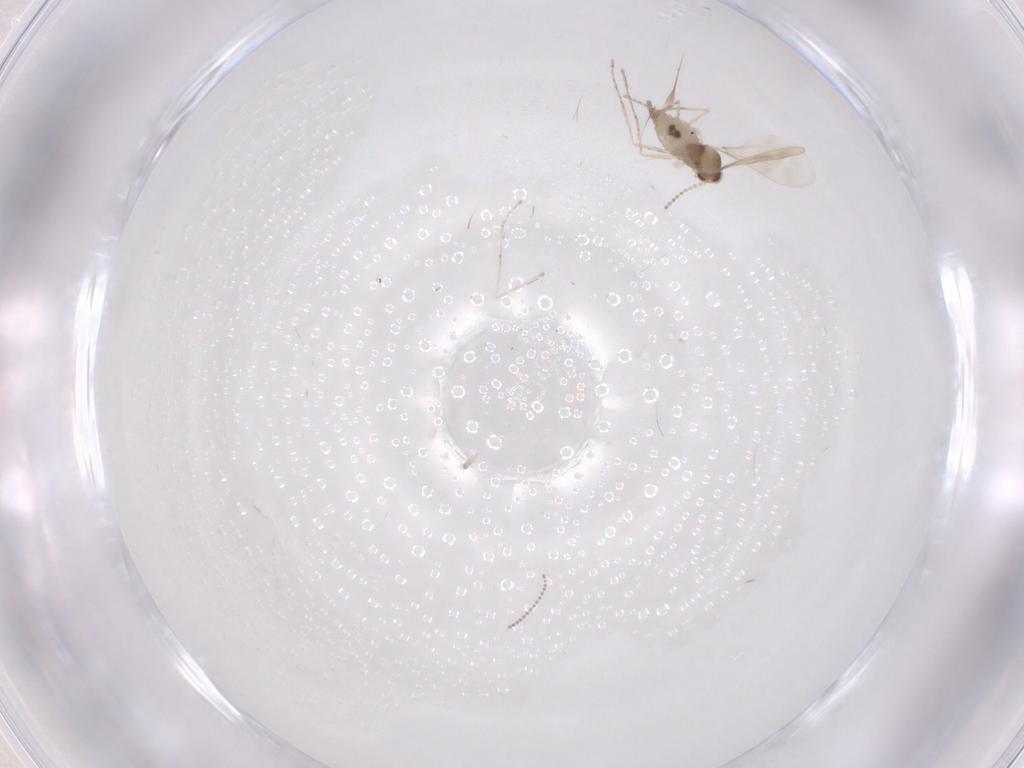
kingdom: Animalia
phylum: Arthropoda
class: Insecta
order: Diptera
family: Cecidomyiidae
